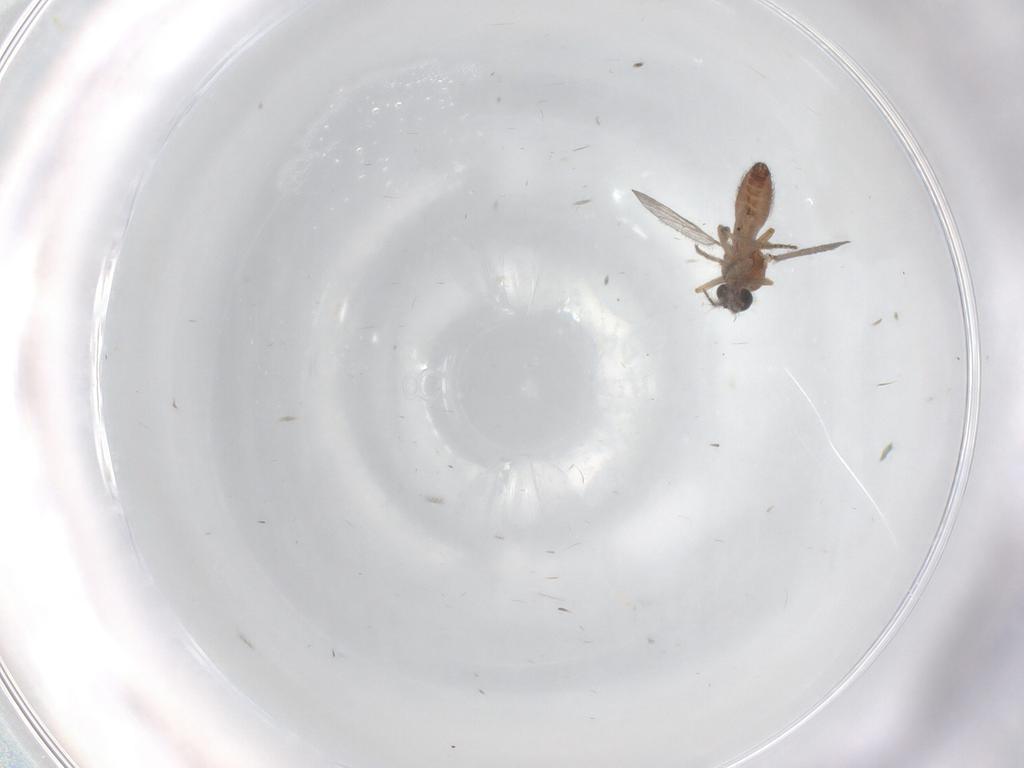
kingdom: Animalia
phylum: Arthropoda
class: Insecta
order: Diptera
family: Ceratopogonidae
